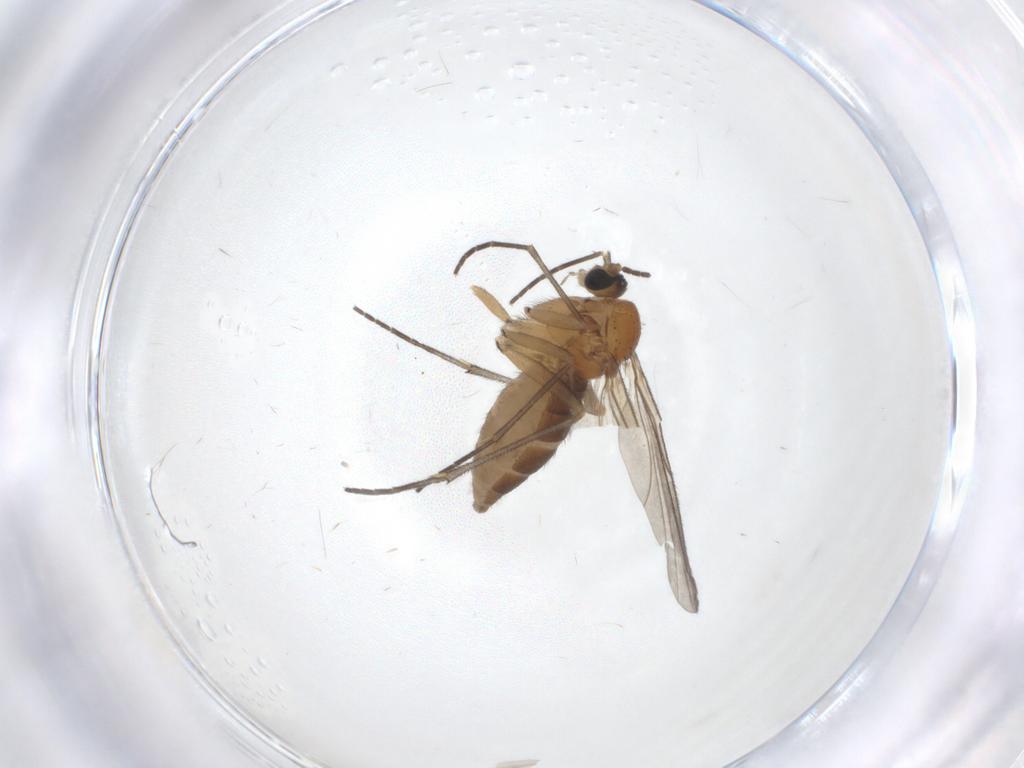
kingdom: Animalia
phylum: Arthropoda
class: Insecta
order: Diptera
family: Sciaridae
